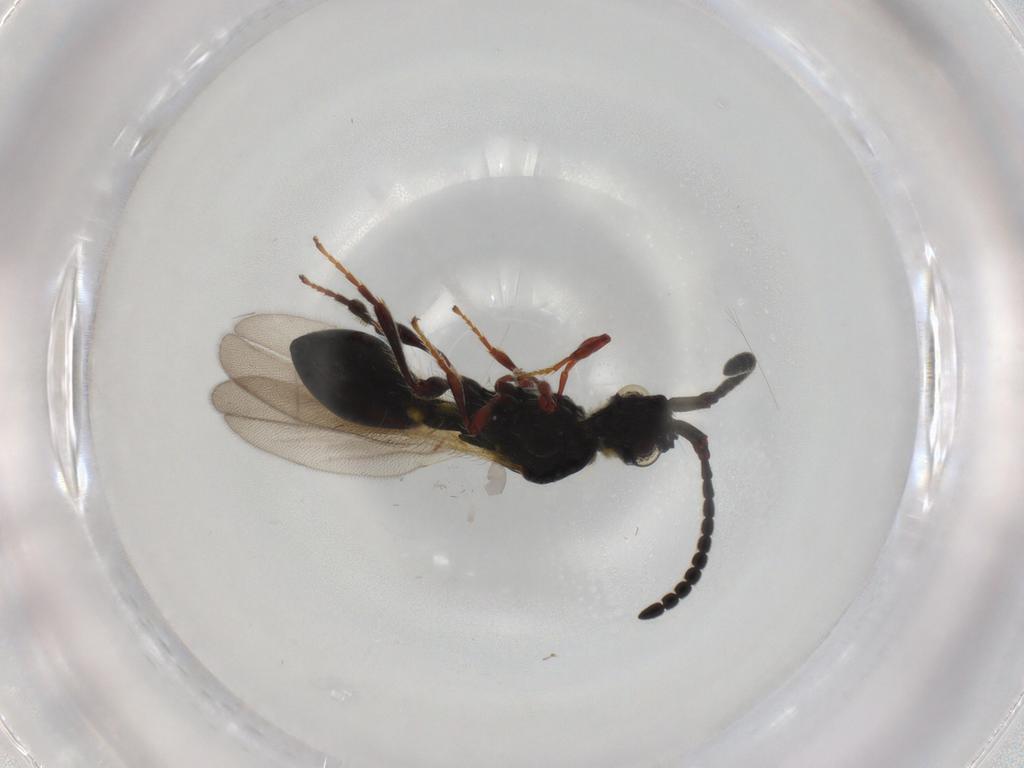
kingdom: Animalia
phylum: Arthropoda
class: Insecta
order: Hymenoptera
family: Diapriidae
